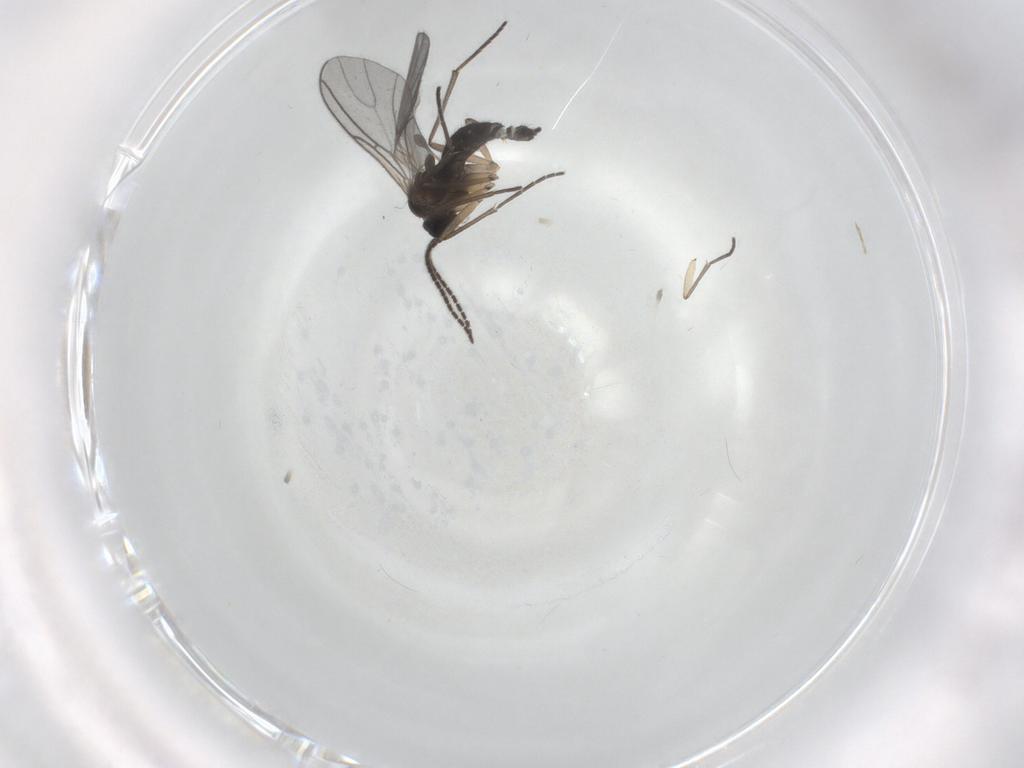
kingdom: Animalia
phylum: Arthropoda
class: Insecta
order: Diptera
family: Sciaridae
